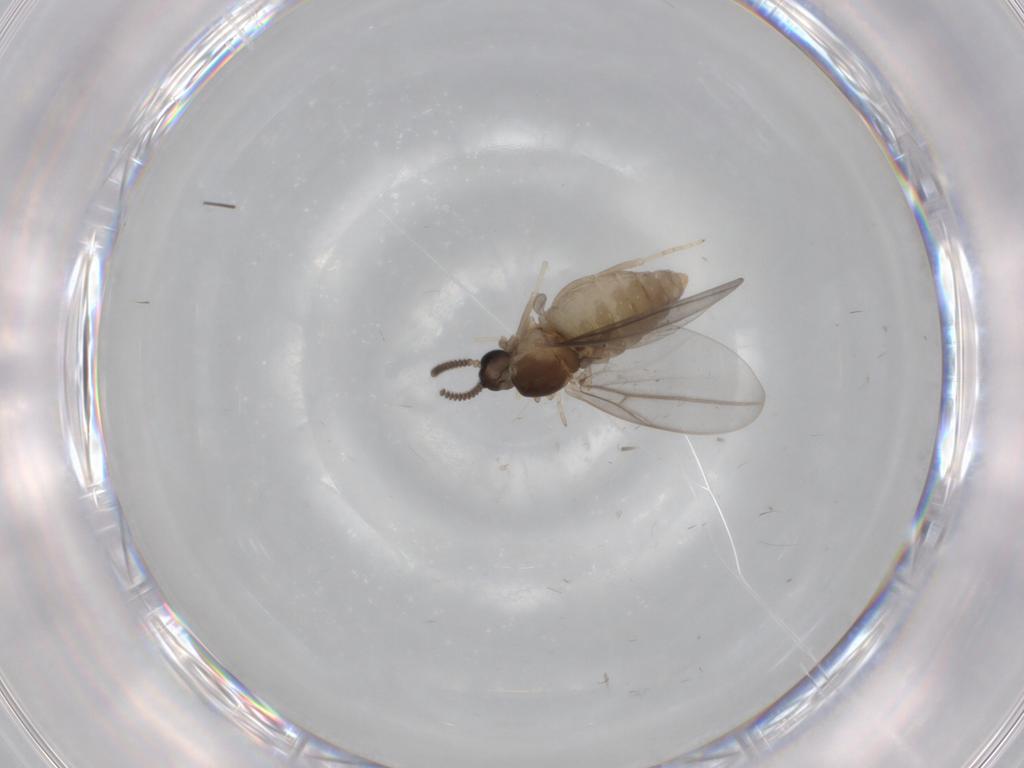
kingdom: Animalia
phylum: Arthropoda
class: Insecta
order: Diptera
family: Cecidomyiidae
